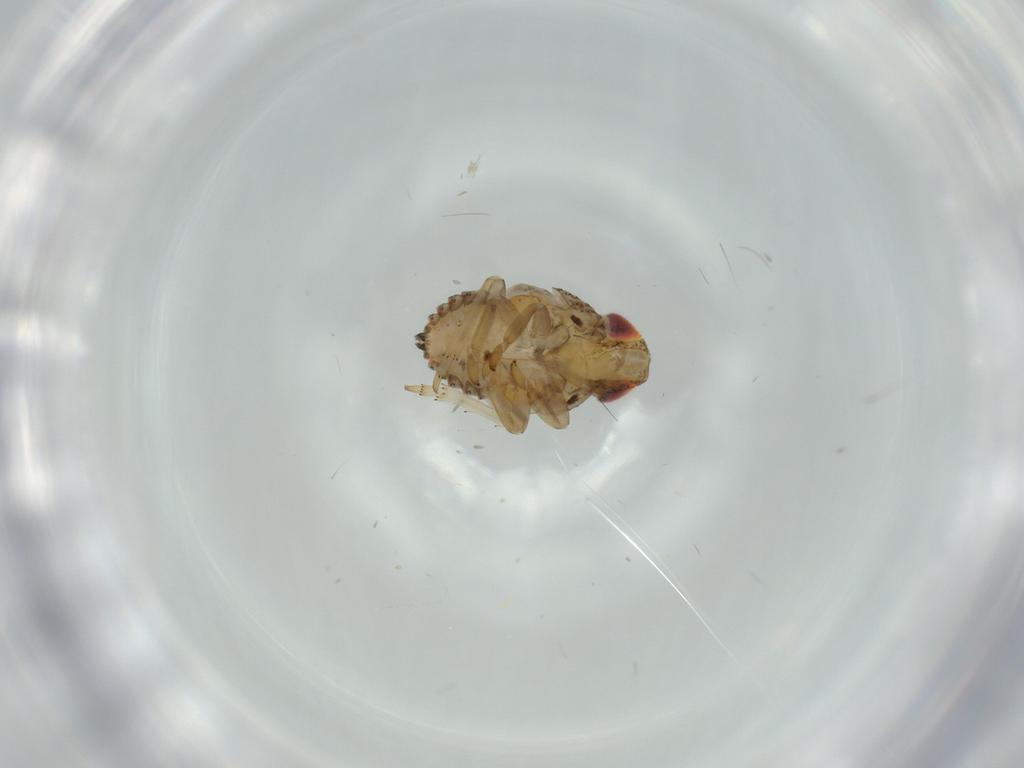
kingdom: Animalia
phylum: Arthropoda
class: Insecta
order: Hemiptera
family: Issidae
